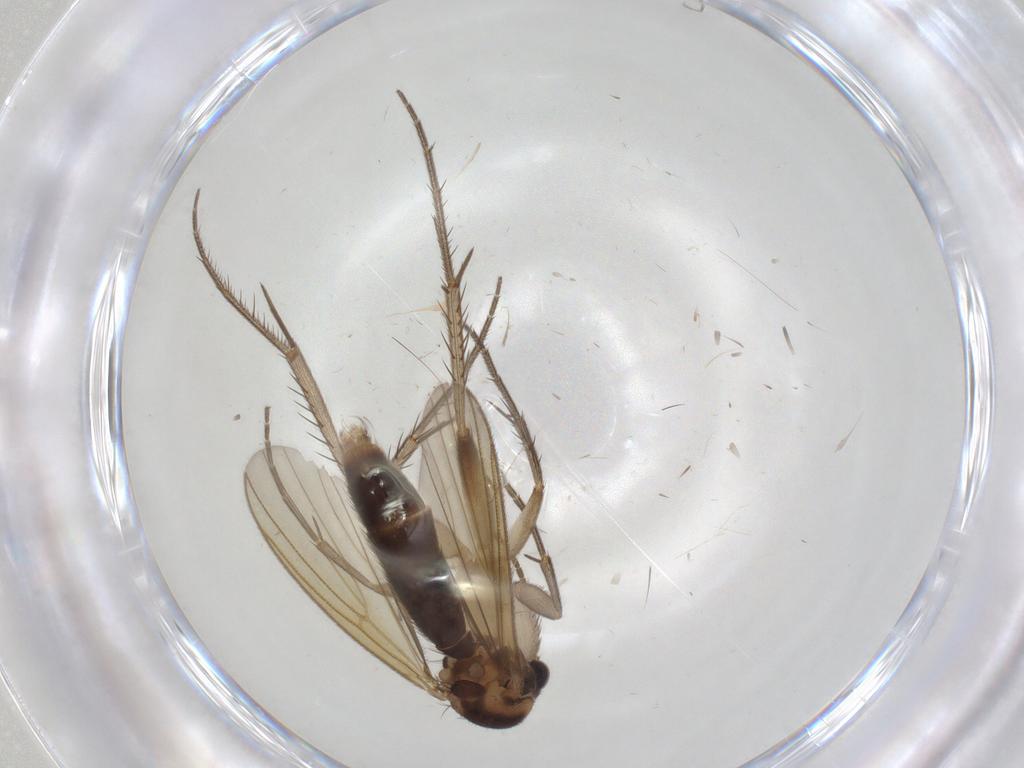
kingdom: Animalia
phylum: Arthropoda
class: Insecta
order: Diptera
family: Mycetophilidae
